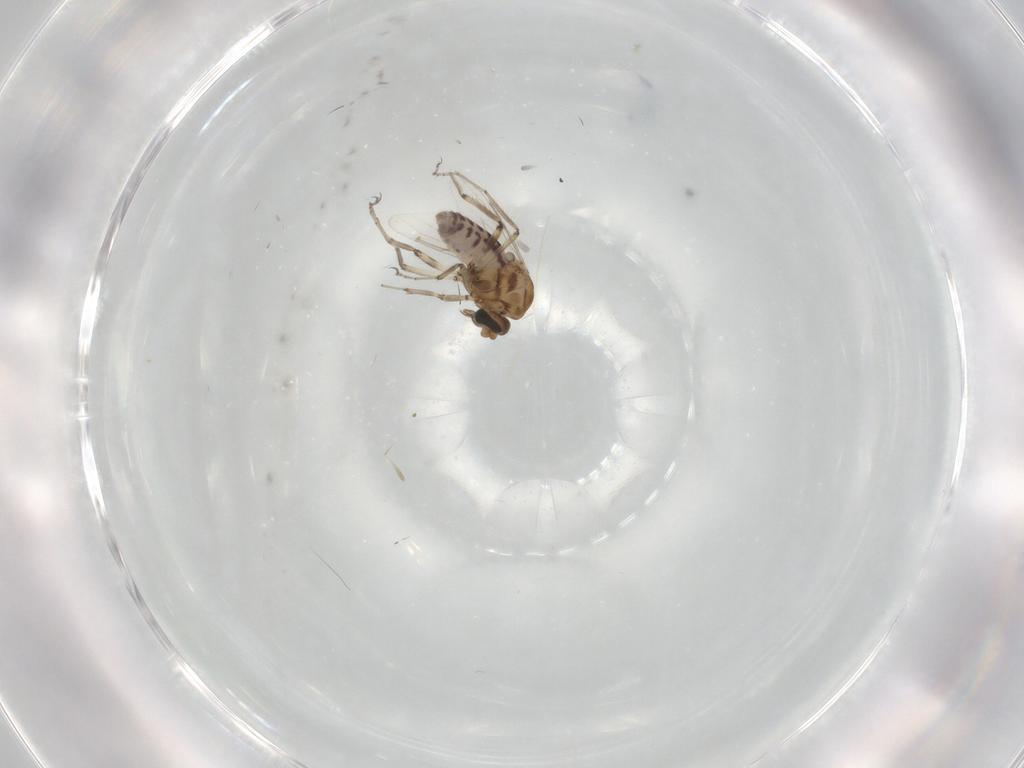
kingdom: Animalia
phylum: Arthropoda
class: Insecta
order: Diptera
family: Ceratopogonidae
